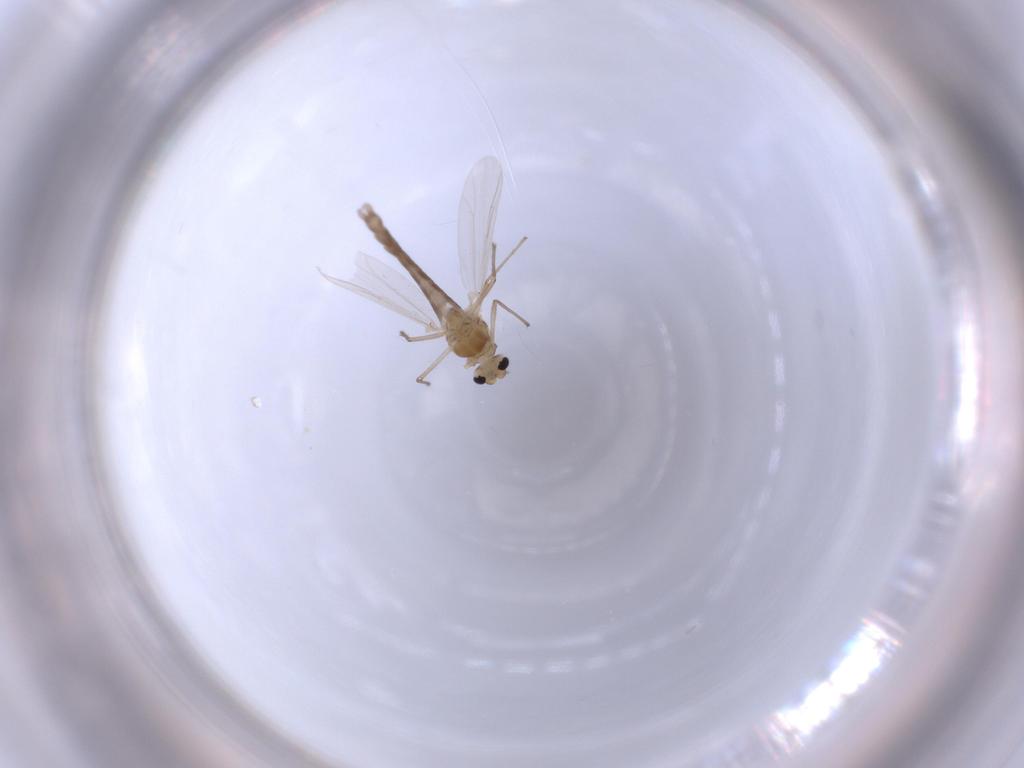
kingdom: Animalia
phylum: Arthropoda
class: Insecta
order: Diptera
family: Chironomidae
